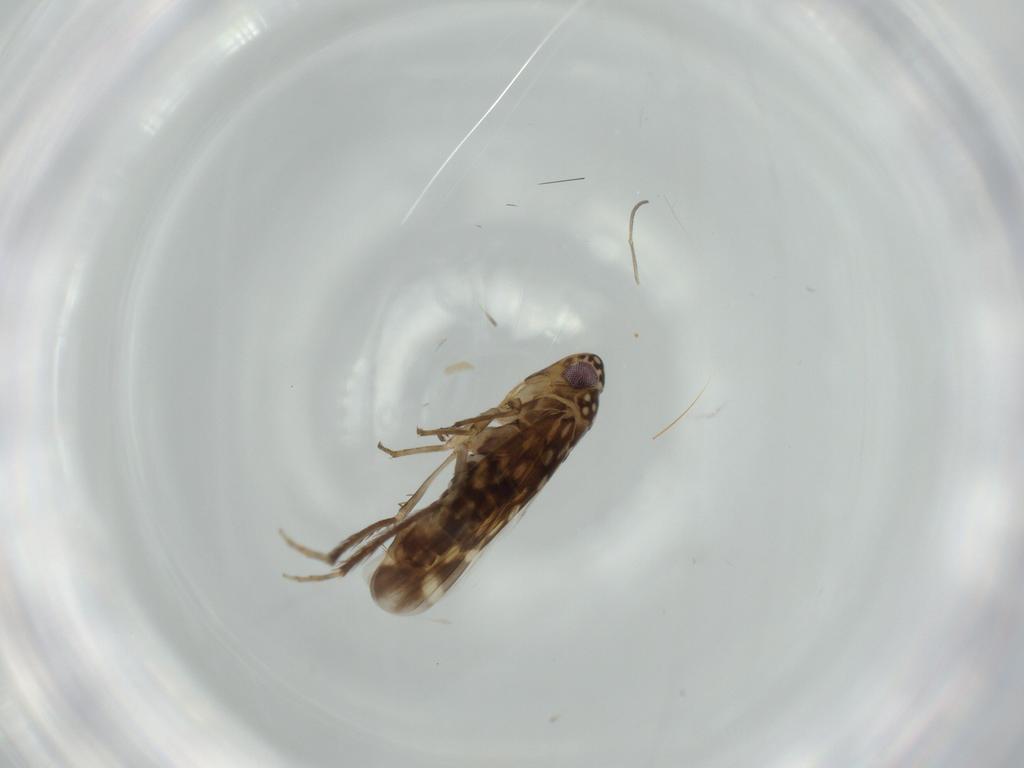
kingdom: Animalia
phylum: Arthropoda
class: Insecta
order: Hemiptera
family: Cicadellidae
